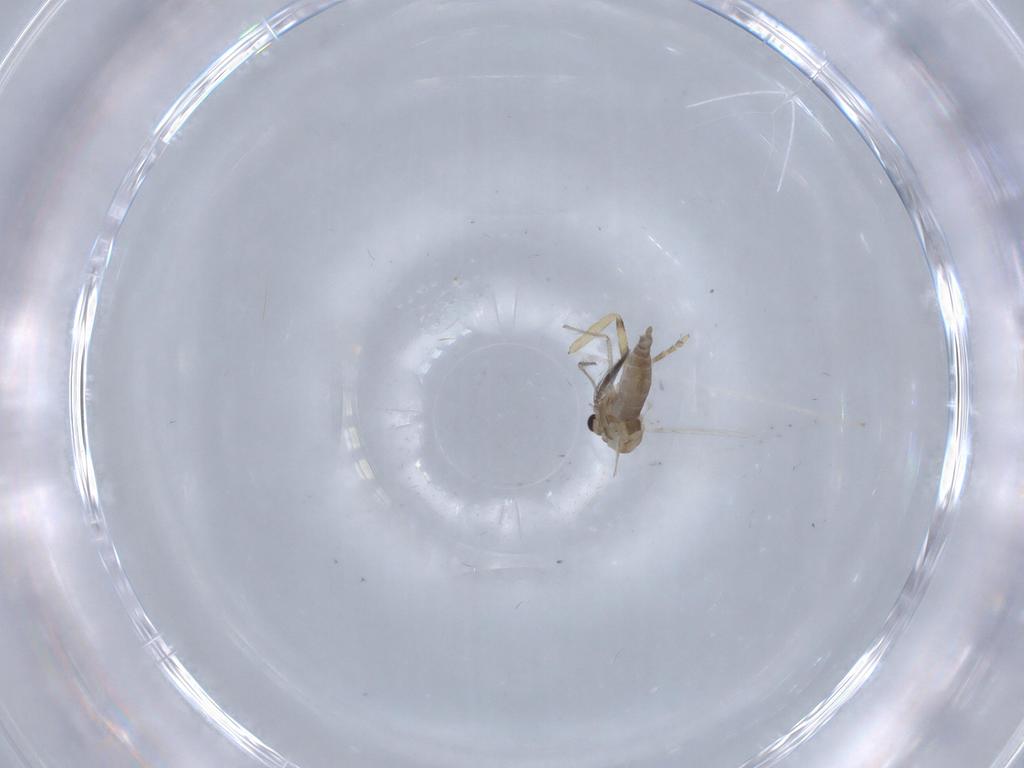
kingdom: Animalia
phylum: Arthropoda
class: Insecta
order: Diptera
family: Chironomidae
